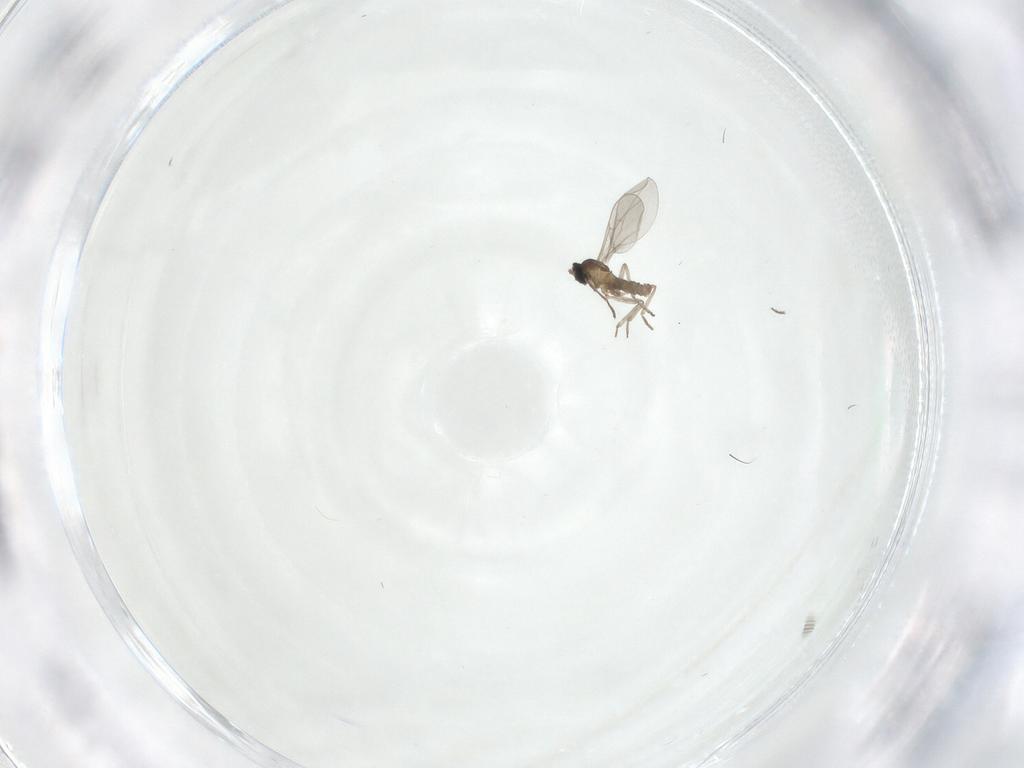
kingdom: Animalia
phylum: Arthropoda
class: Insecta
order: Diptera
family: Cecidomyiidae
